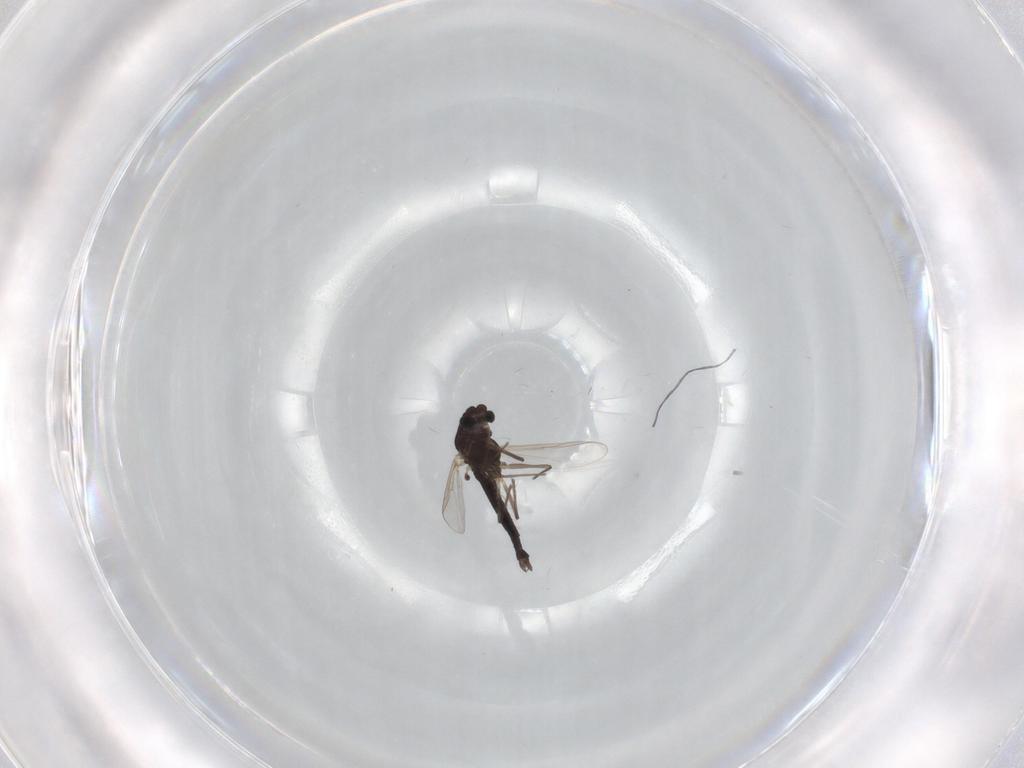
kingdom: Animalia
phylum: Arthropoda
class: Insecta
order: Diptera
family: Chironomidae
